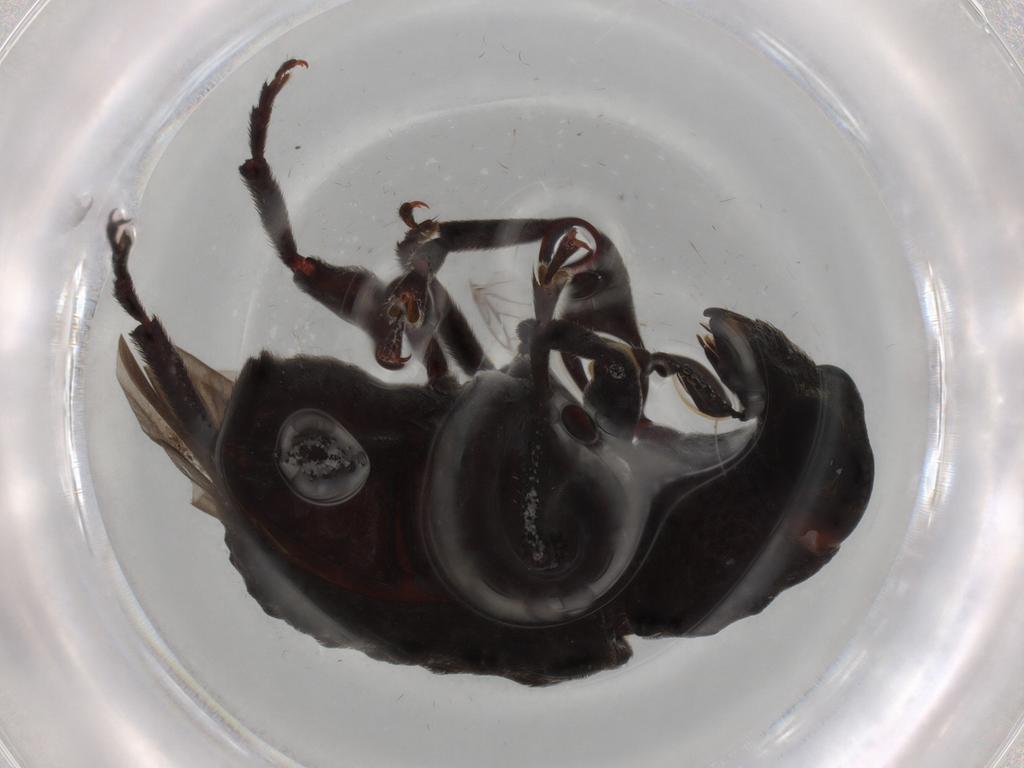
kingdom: Animalia
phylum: Arthropoda
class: Insecta
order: Coleoptera
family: Anthribidae
